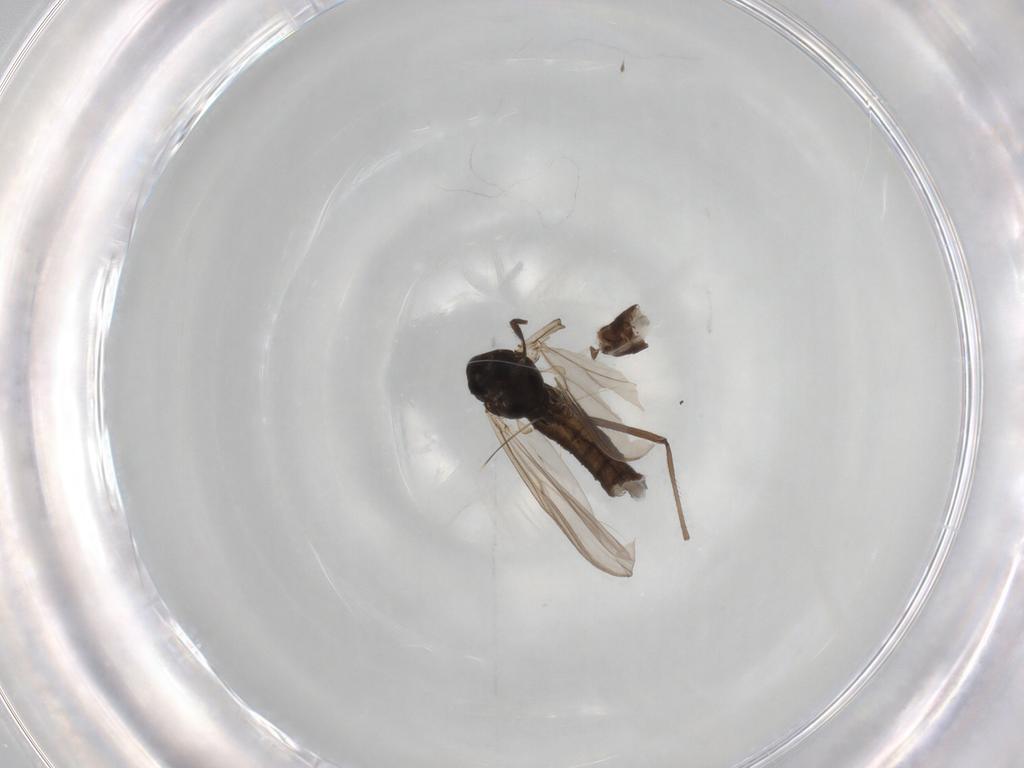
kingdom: Animalia
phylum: Arthropoda
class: Insecta
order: Diptera
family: Chironomidae
